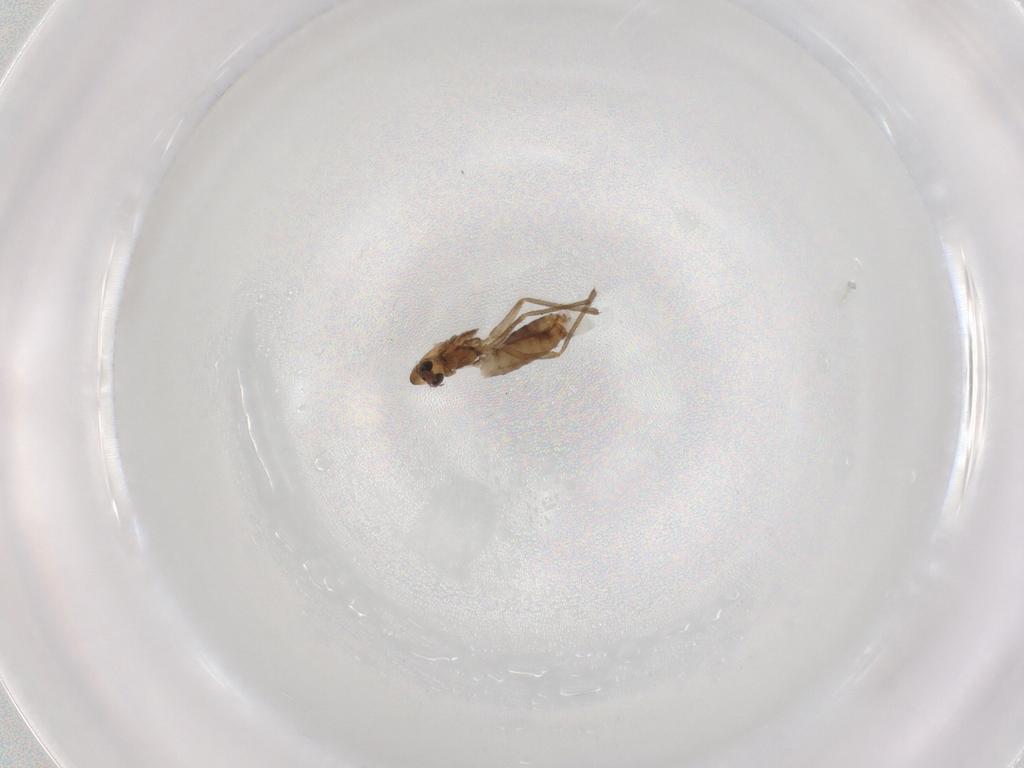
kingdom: Animalia
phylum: Arthropoda
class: Insecta
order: Diptera
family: Chironomidae
